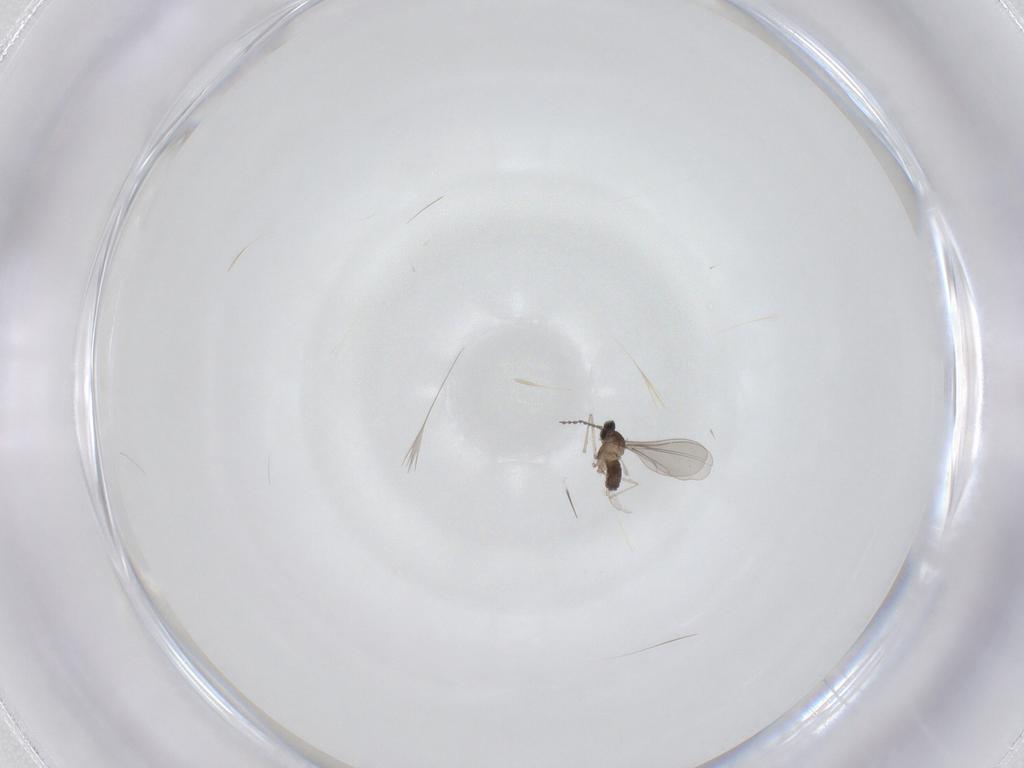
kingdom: Animalia
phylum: Arthropoda
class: Insecta
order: Diptera
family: Cecidomyiidae
